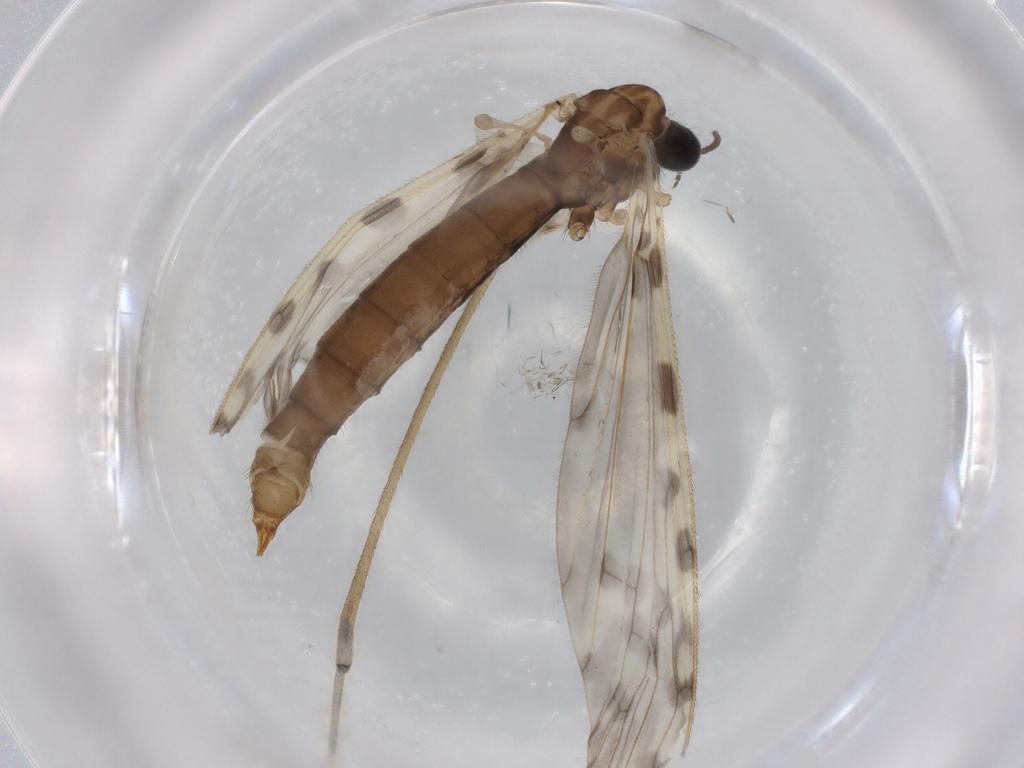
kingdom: Animalia
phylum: Arthropoda
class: Insecta
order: Diptera
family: Limoniidae
